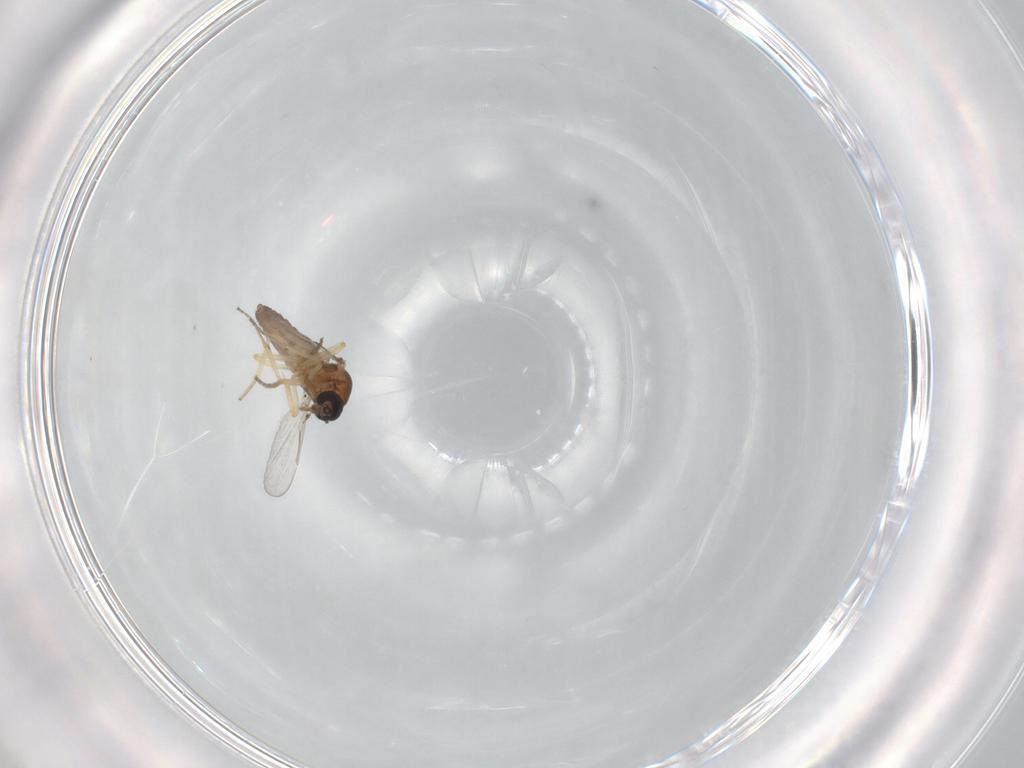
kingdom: Animalia
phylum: Arthropoda
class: Insecta
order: Diptera
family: Ceratopogonidae
